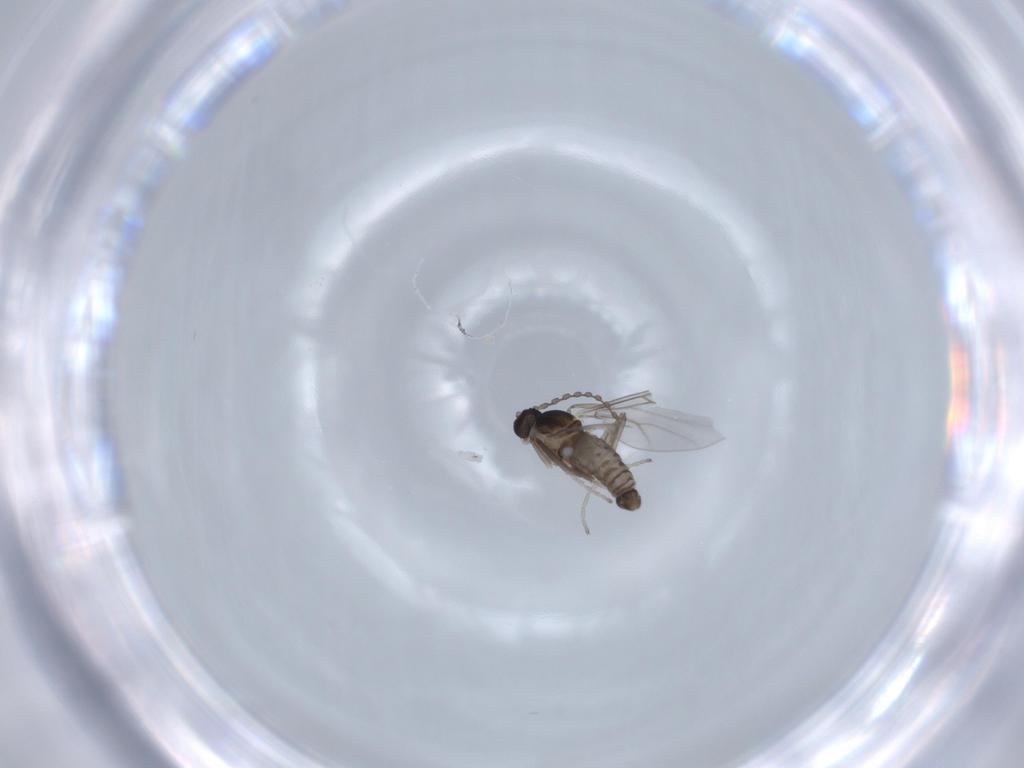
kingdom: Animalia
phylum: Arthropoda
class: Insecta
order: Diptera
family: Cecidomyiidae
